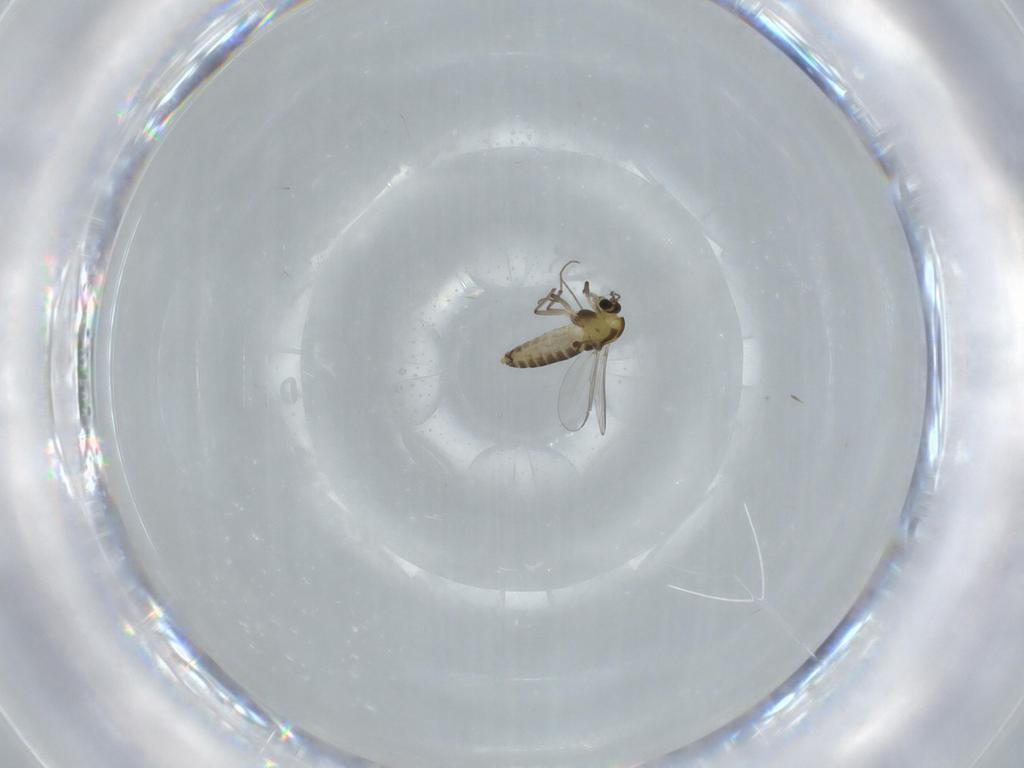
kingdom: Animalia
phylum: Arthropoda
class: Insecta
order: Diptera
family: Chironomidae
